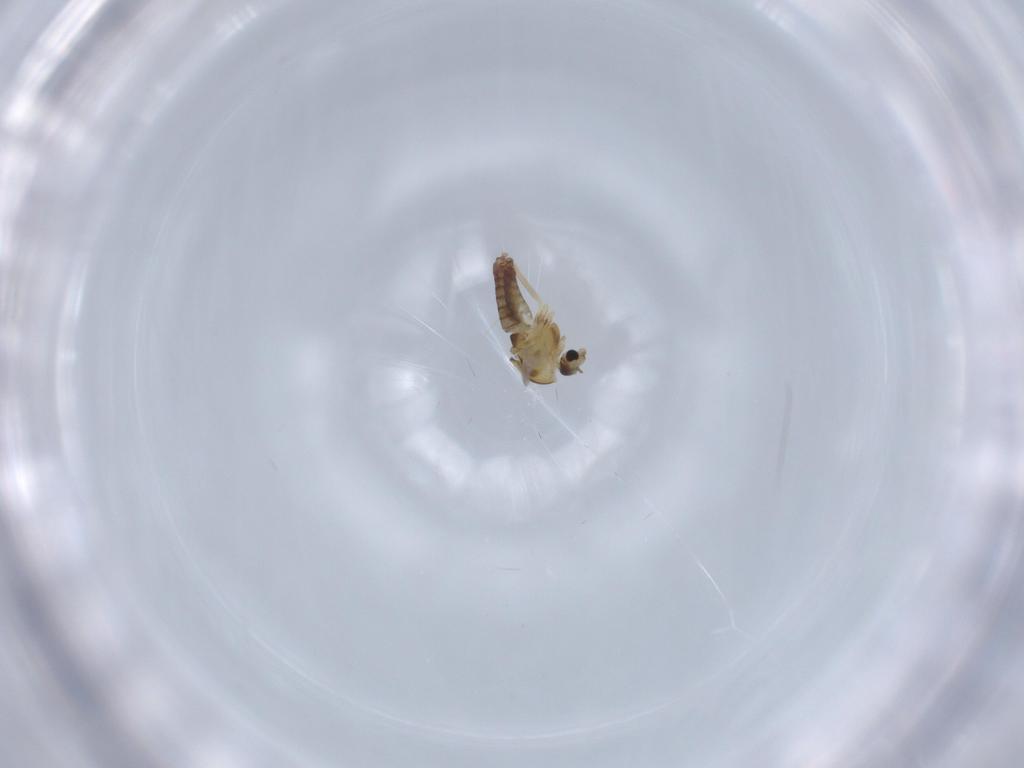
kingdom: Animalia
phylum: Arthropoda
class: Insecta
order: Diptera
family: Chironomidae
